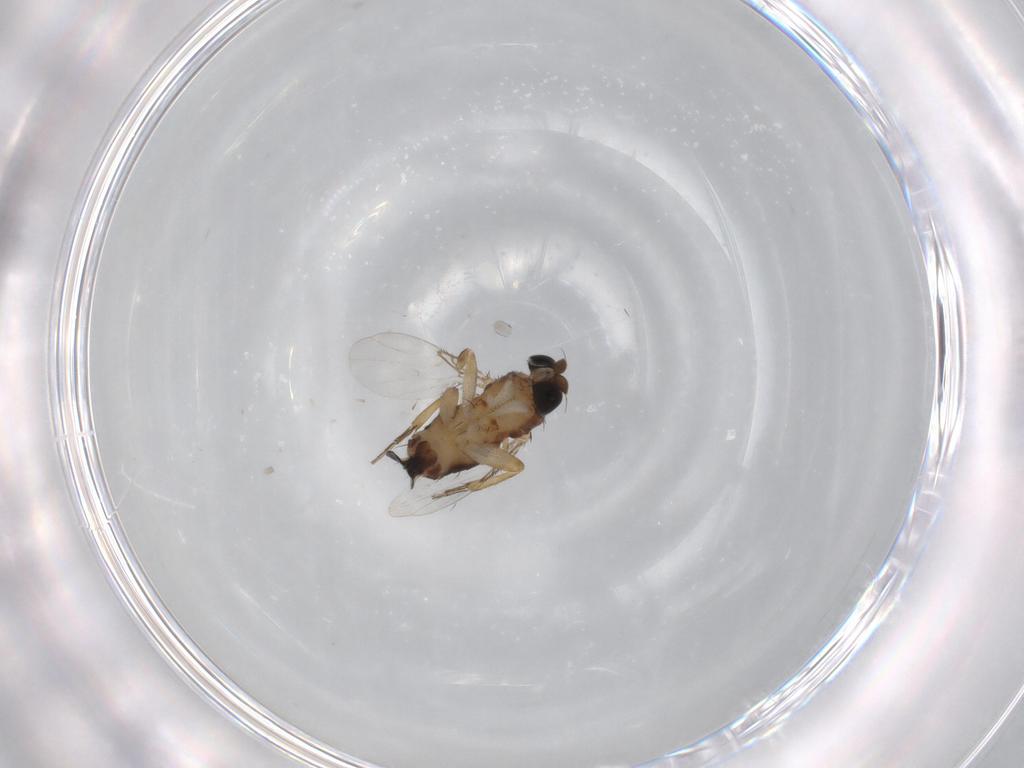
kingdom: Animalia
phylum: Arthropoda
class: Insecta
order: Diptera
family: Phoridae
